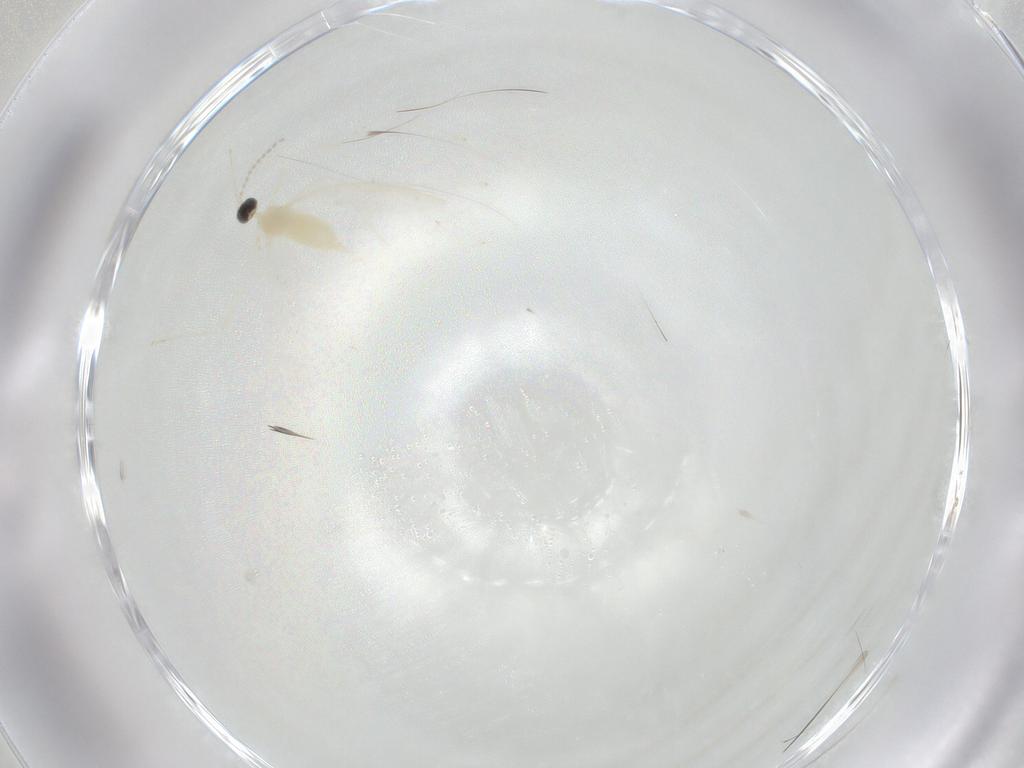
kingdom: Animalia
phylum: Arthropoda
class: Insecta
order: Diptera
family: Cecidomyiidae
